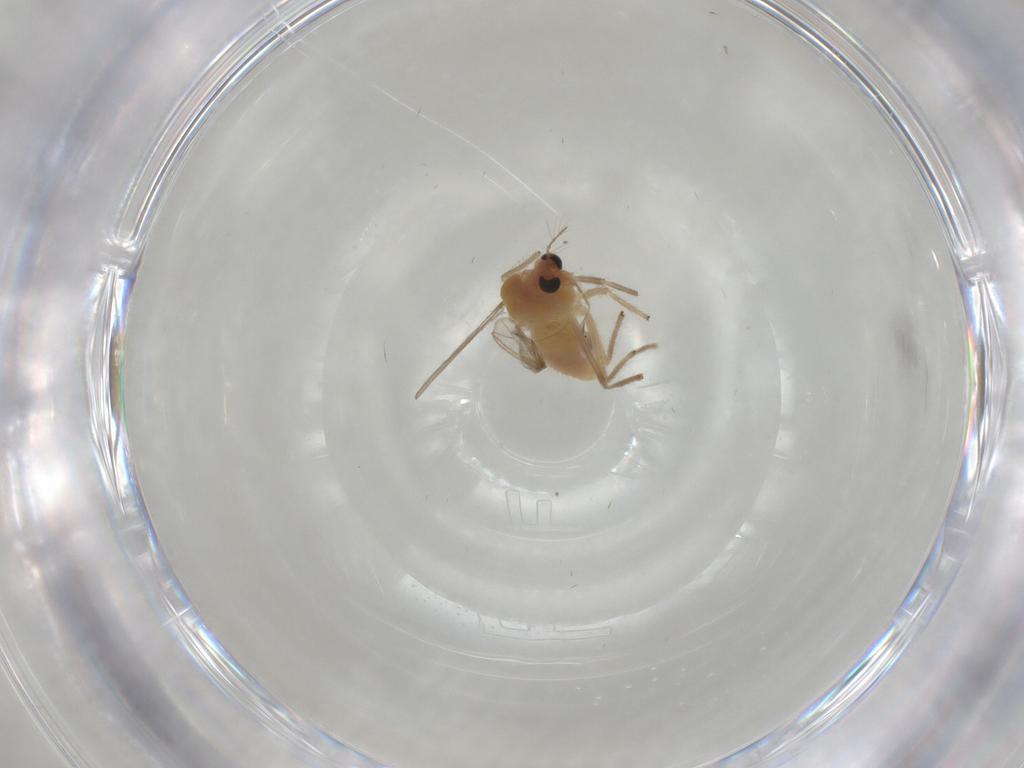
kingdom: Animalia
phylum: Arthropoda
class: Insecta
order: Diptera
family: Chironomidae
